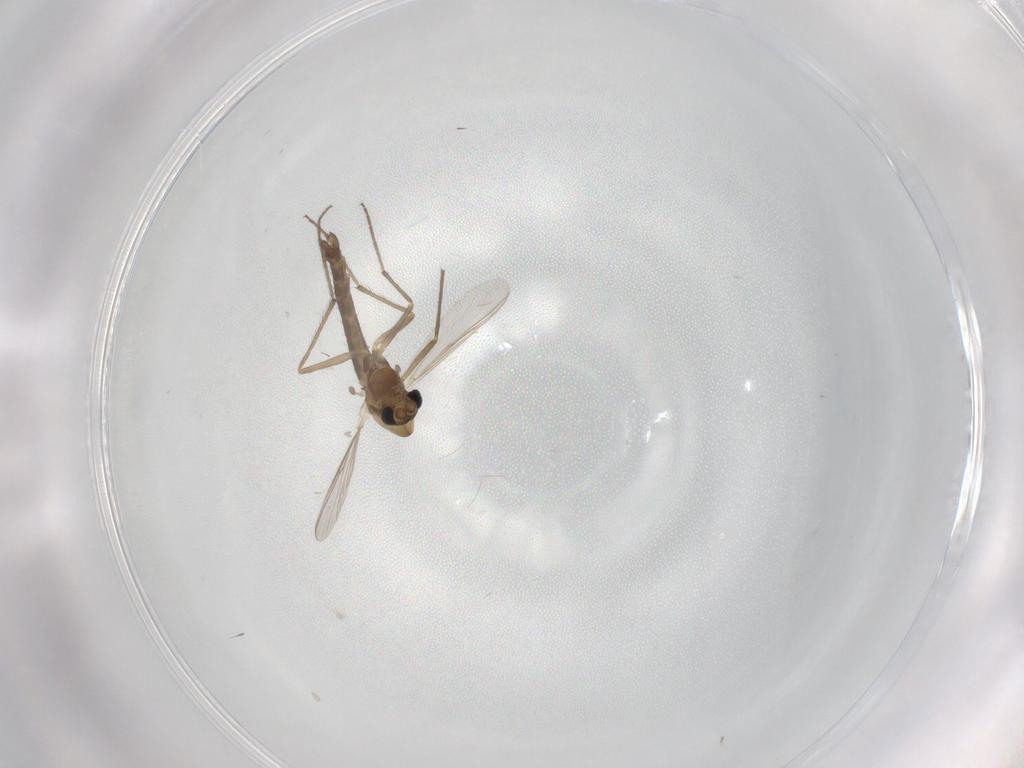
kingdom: Animalia
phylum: Arthropoda
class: Insecta
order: Diptera
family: Chironomidae
